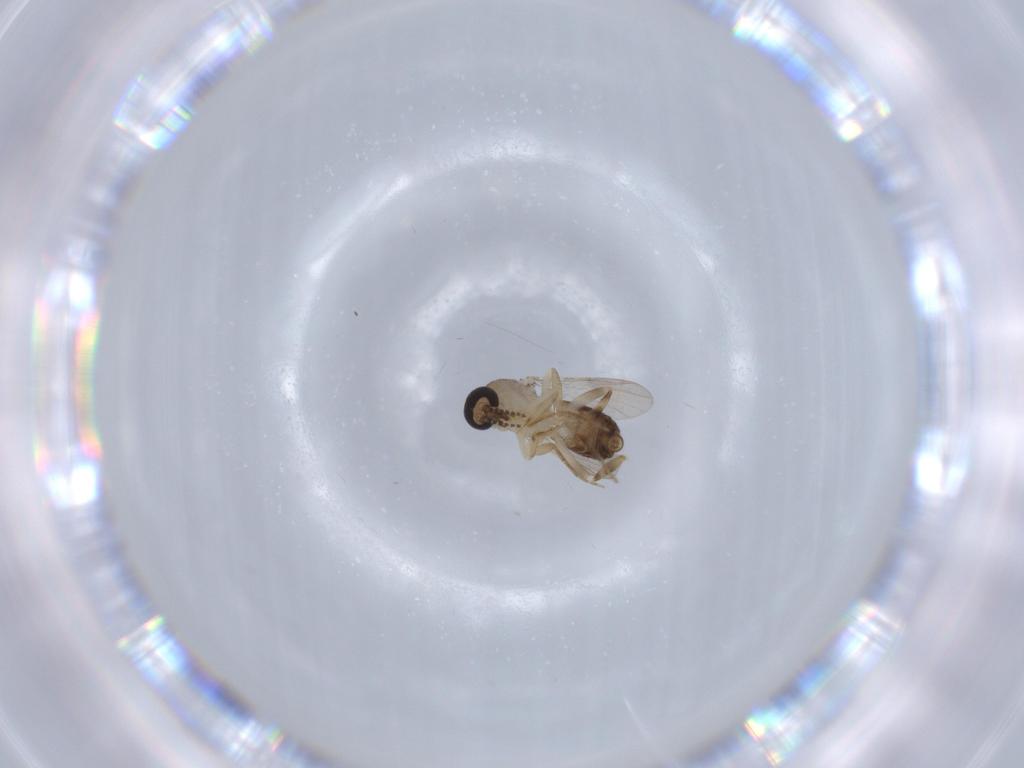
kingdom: Animalia
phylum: Arthropoda
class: Insecta
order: Diptera
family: Ceratopogonidae
